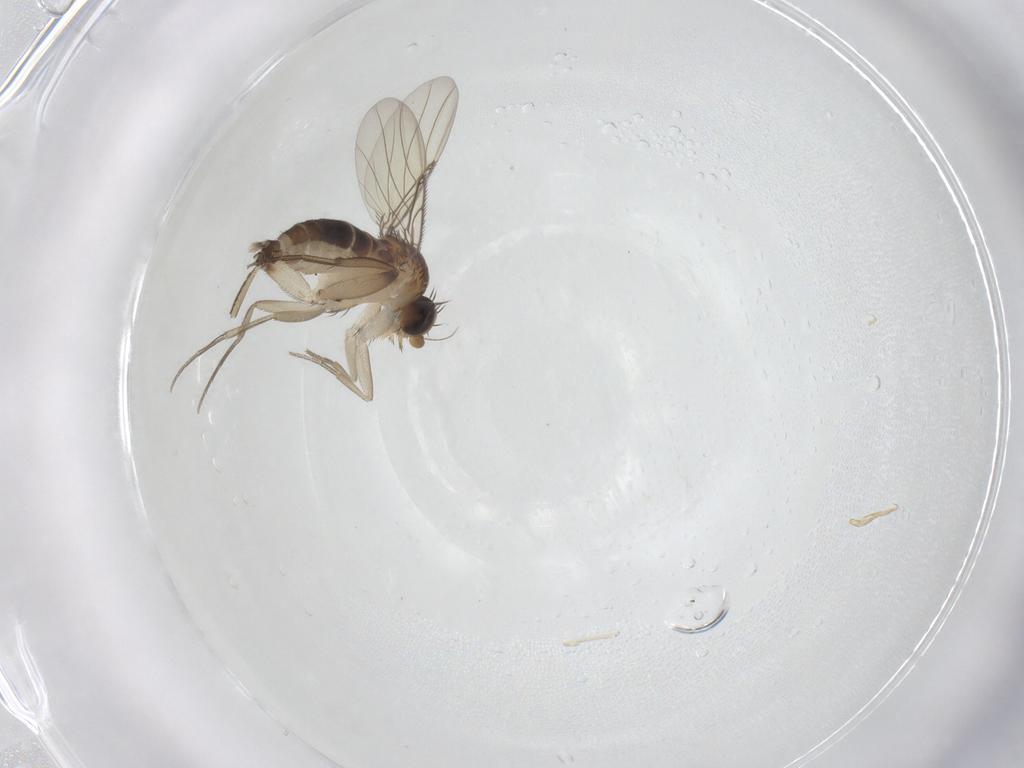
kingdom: Animalia
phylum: Arthropoda
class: Insecta
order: Diptera
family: Phoridae
